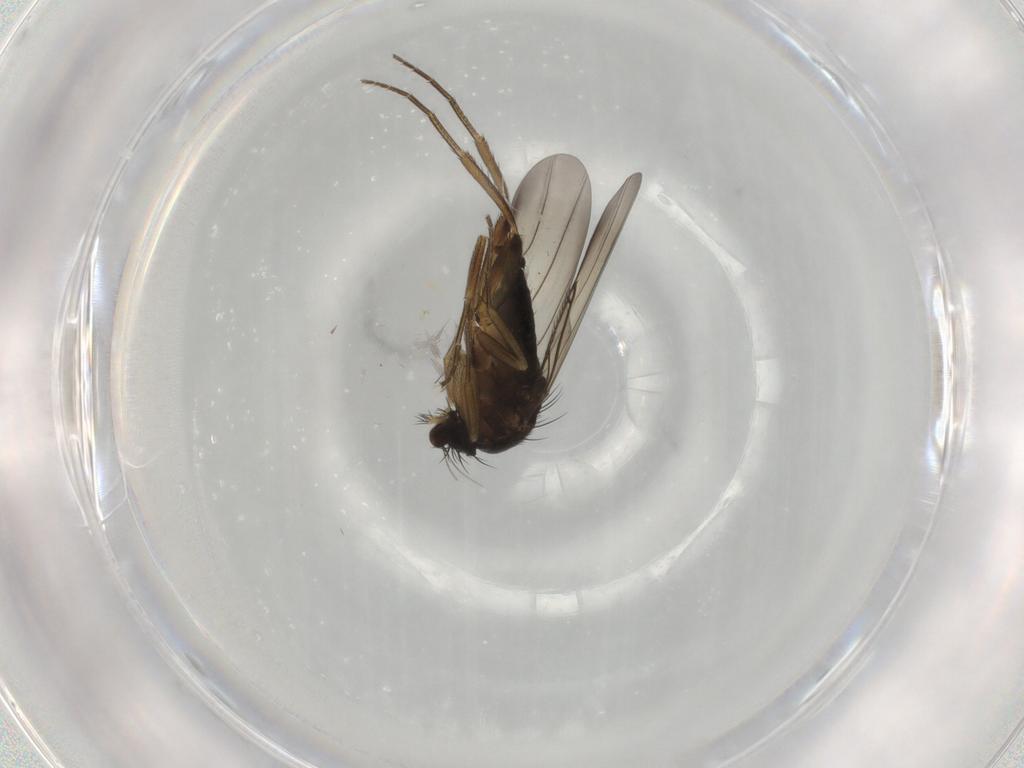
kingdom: Animalia
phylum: Arthropoda
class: Insecta
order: Diptera
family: Phoridae
